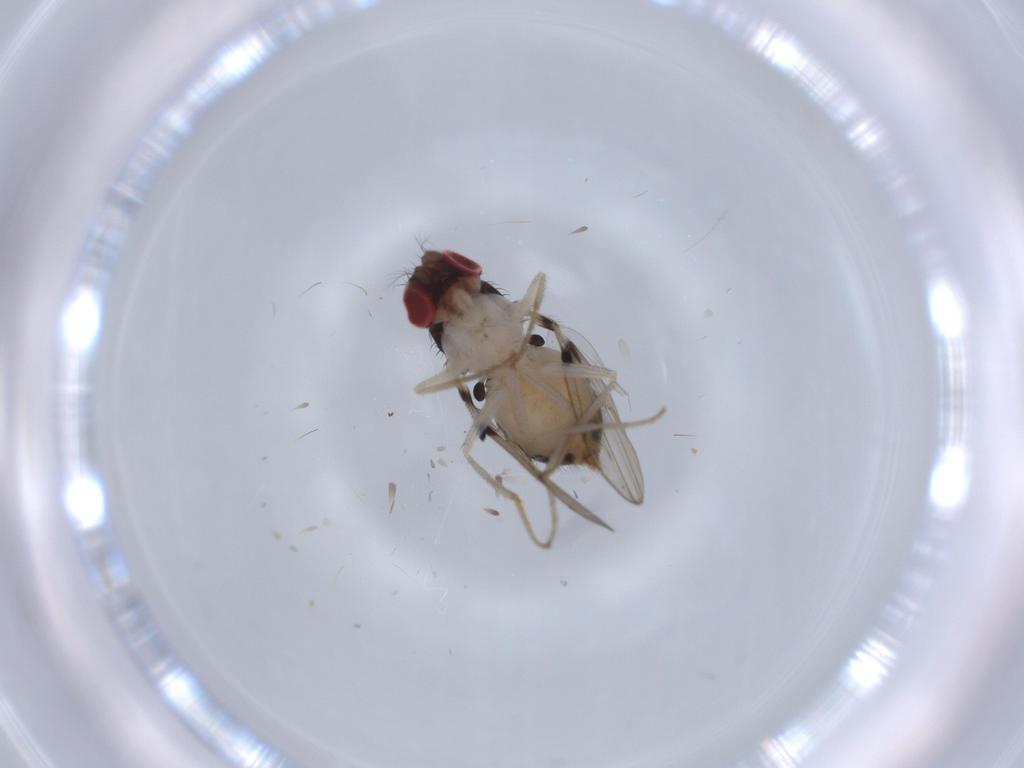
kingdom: Animalia
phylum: Arthropoda
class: Insecta
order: Diptera
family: Drosophilidae
